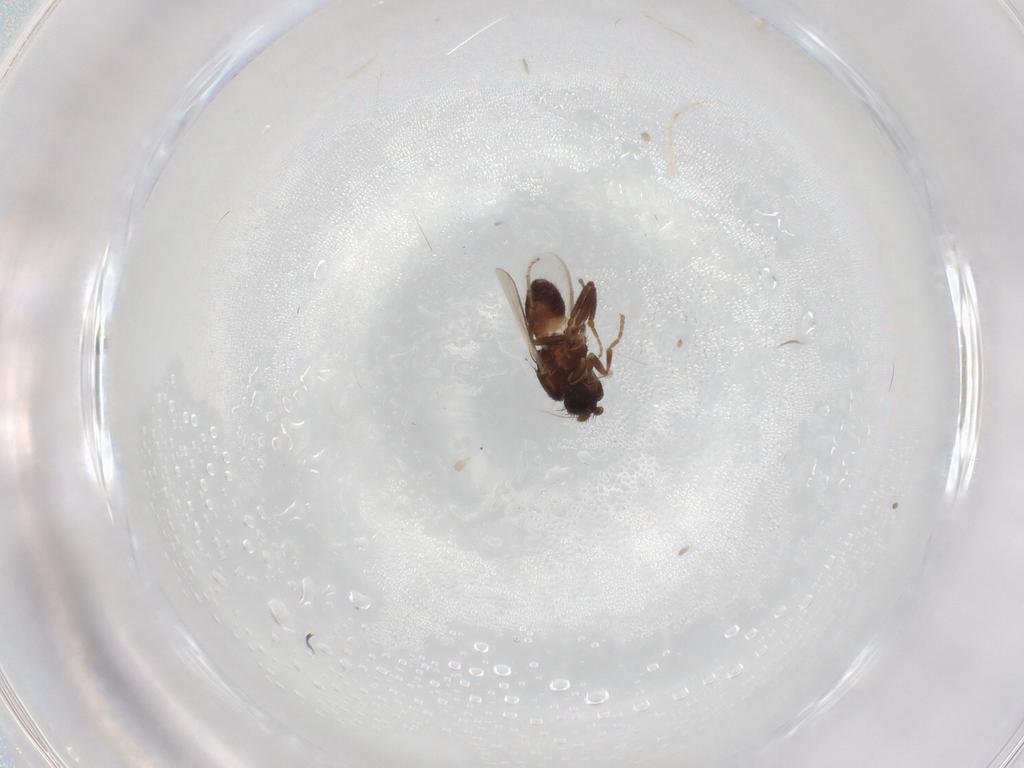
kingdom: Animalia
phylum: Arthropoda
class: Insecta
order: Diptera
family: Sphaeroceridae
